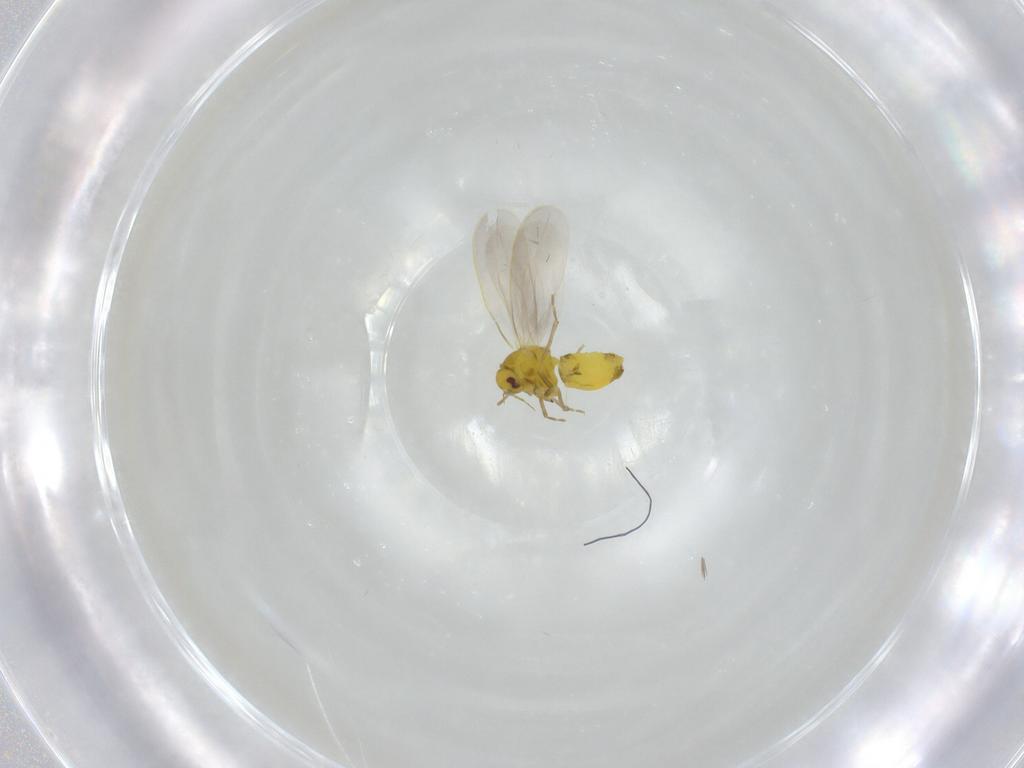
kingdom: Animalia
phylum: Arthropoda
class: Insecta
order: Hemiptera
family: Aleyrodidae
